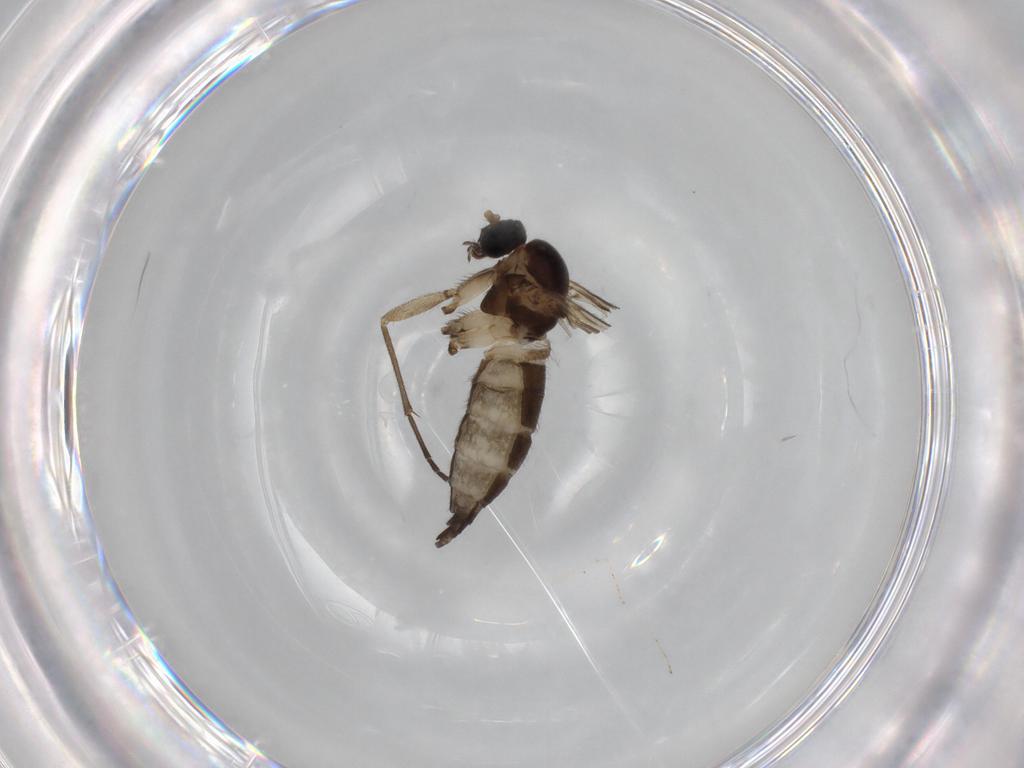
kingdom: Animalia
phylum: Arthropoda
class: Insecta
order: Diptera
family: Sciaridae
